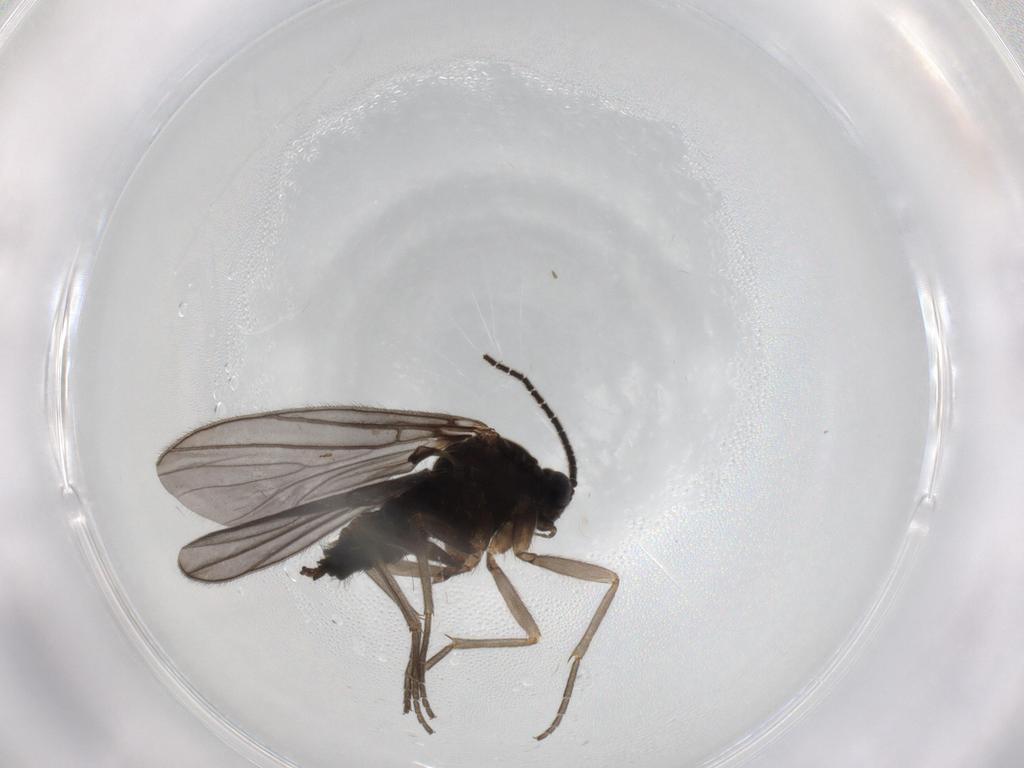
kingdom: Animalia
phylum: Arthropoda
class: Insecta
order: Diptera
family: Sciaridae
